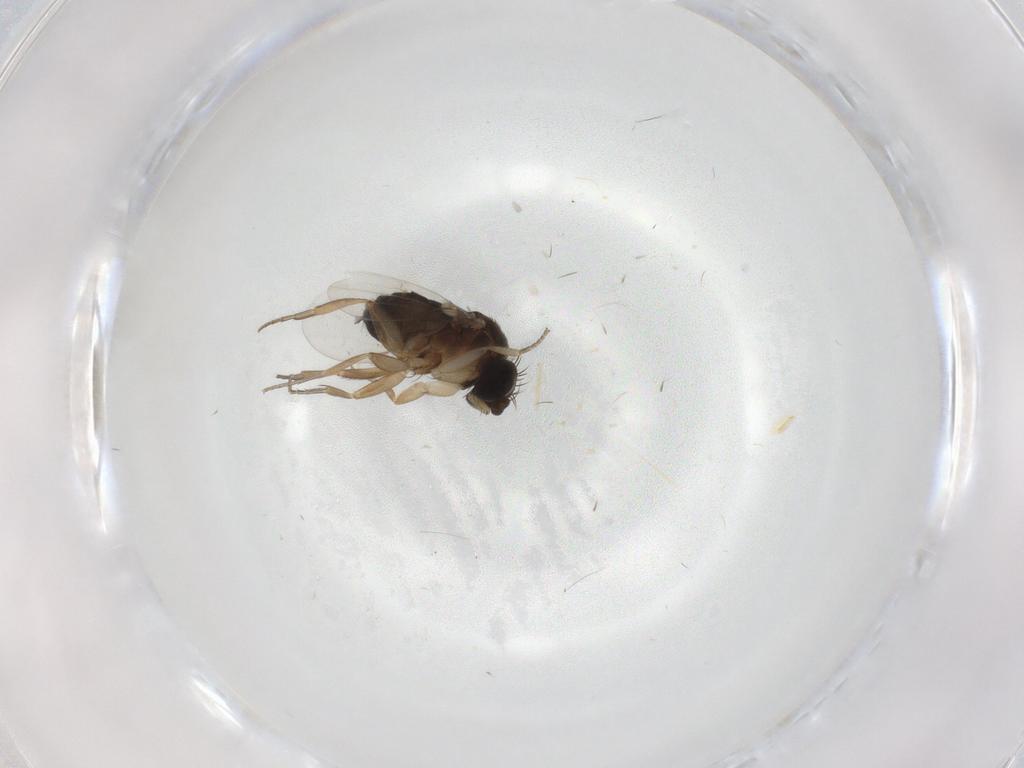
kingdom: Animalia
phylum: Arthropoda
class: Insecta
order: Diptera
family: Phoridae
